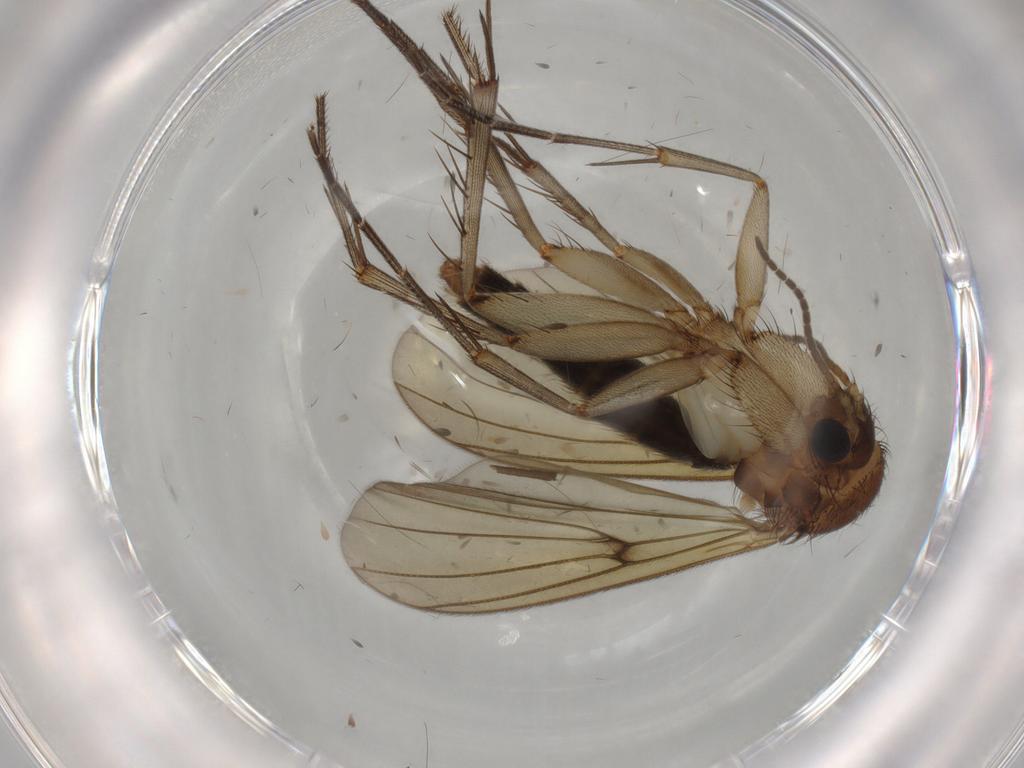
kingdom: Animalia
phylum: Arthropoda
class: Insecta
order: Diptera
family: Mycetophilidae
